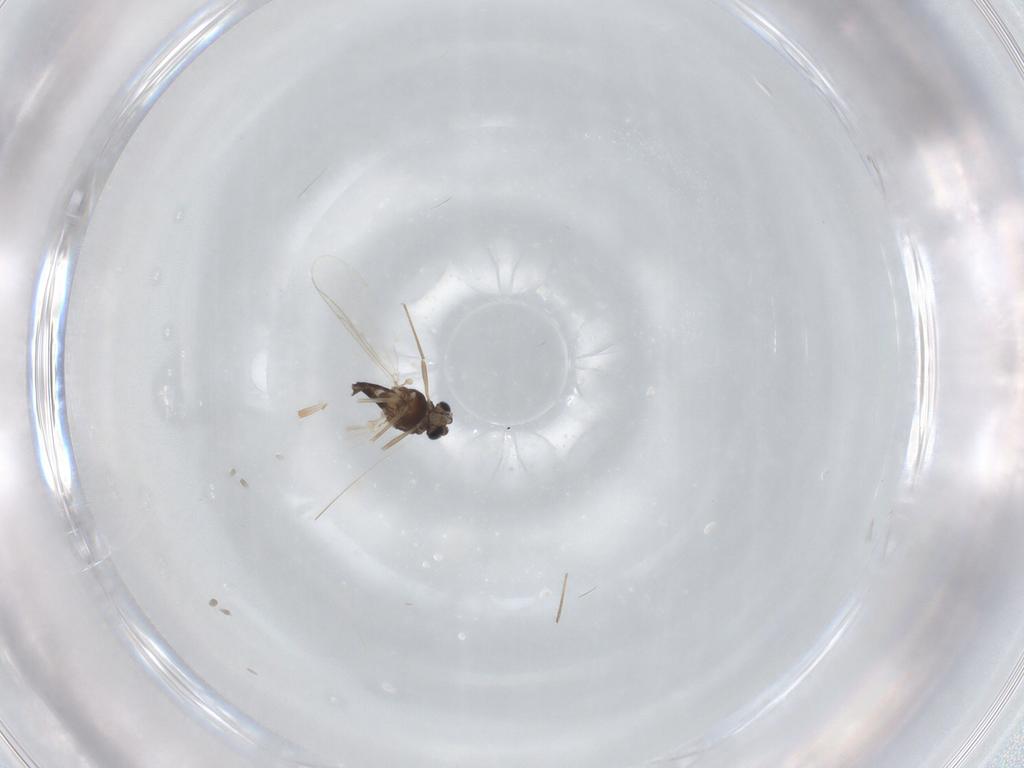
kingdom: Animalia
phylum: Arthropoda
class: Insecta
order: Diptera
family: Chironomidae
